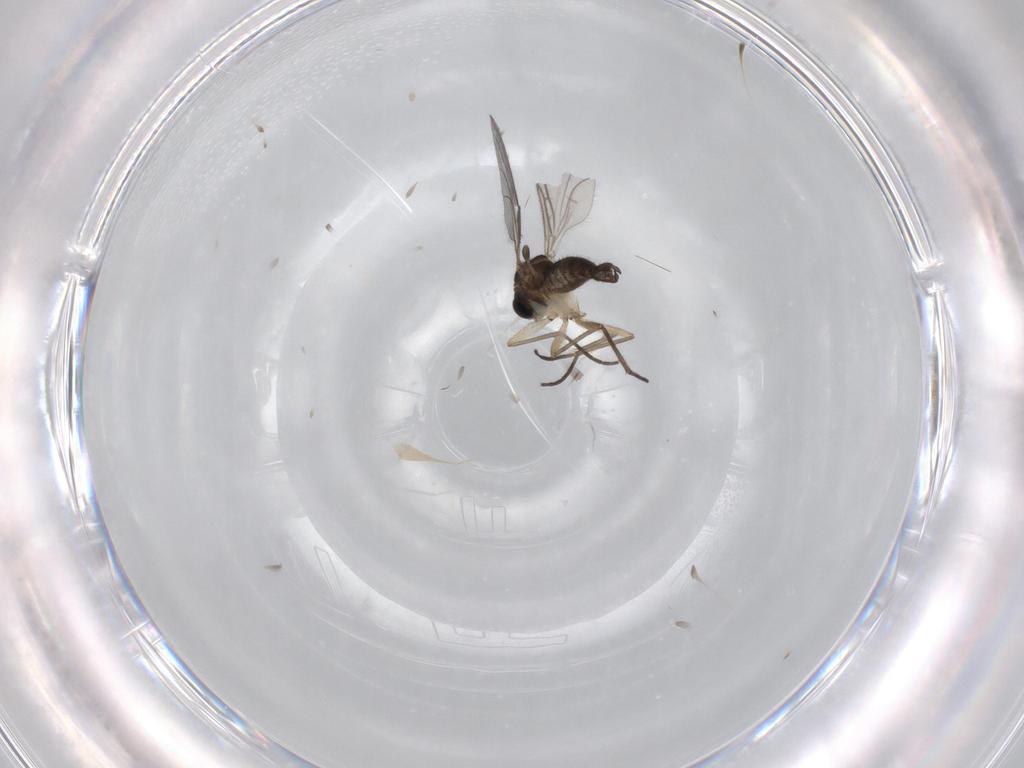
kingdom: Animalia
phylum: Arthropoda
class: Insecta
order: Diptera
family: Sciaridae
